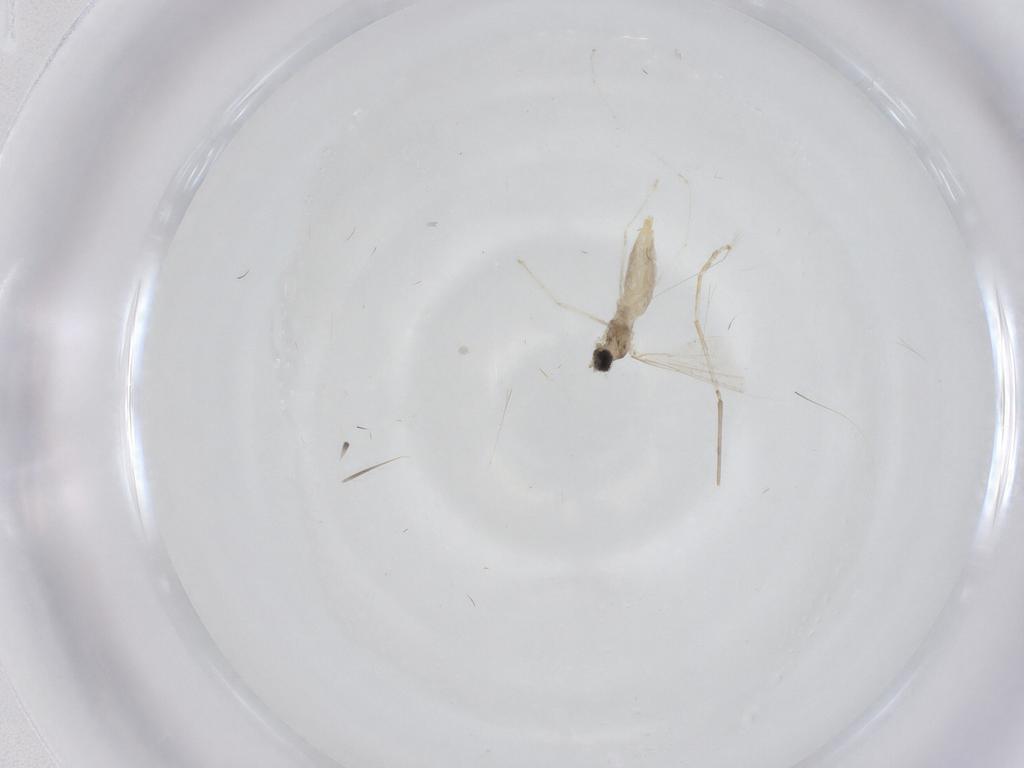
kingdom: Animalia
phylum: Arthropoda
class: Insecta
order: Diptera
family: Cecidomyiidae
